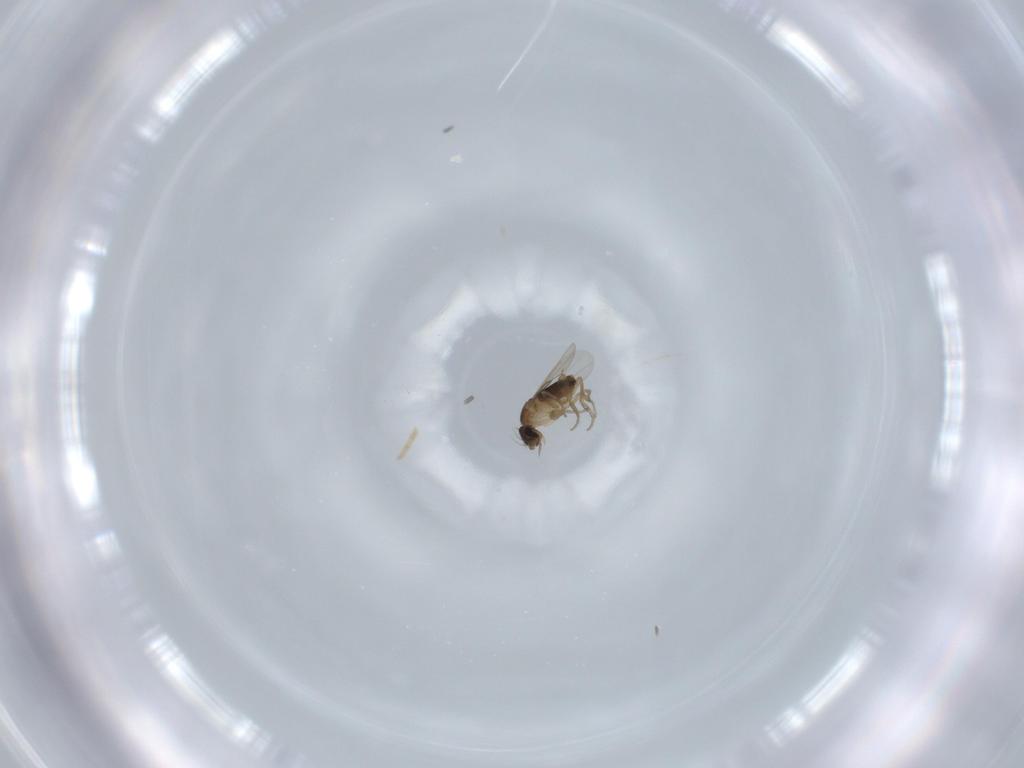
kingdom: Animalia
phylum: Arthropoda
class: Insecta
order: Diptera
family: Phoridae
